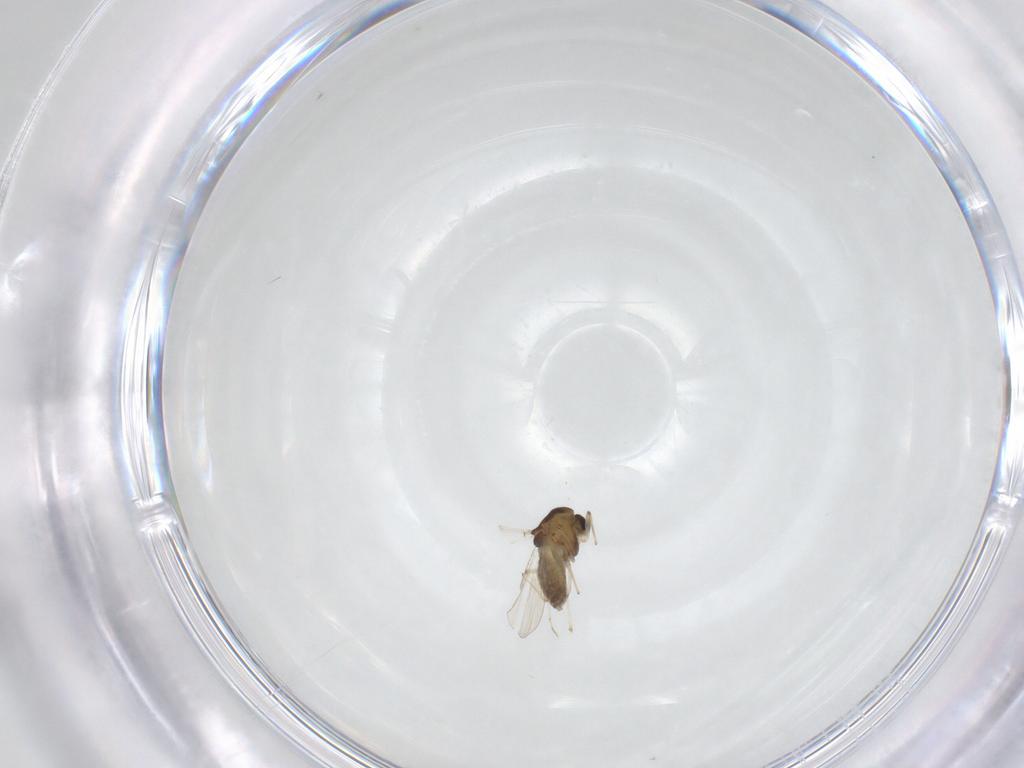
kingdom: Animalia
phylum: Arthropoda
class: Insecta
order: Diptera
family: Chironomidae
